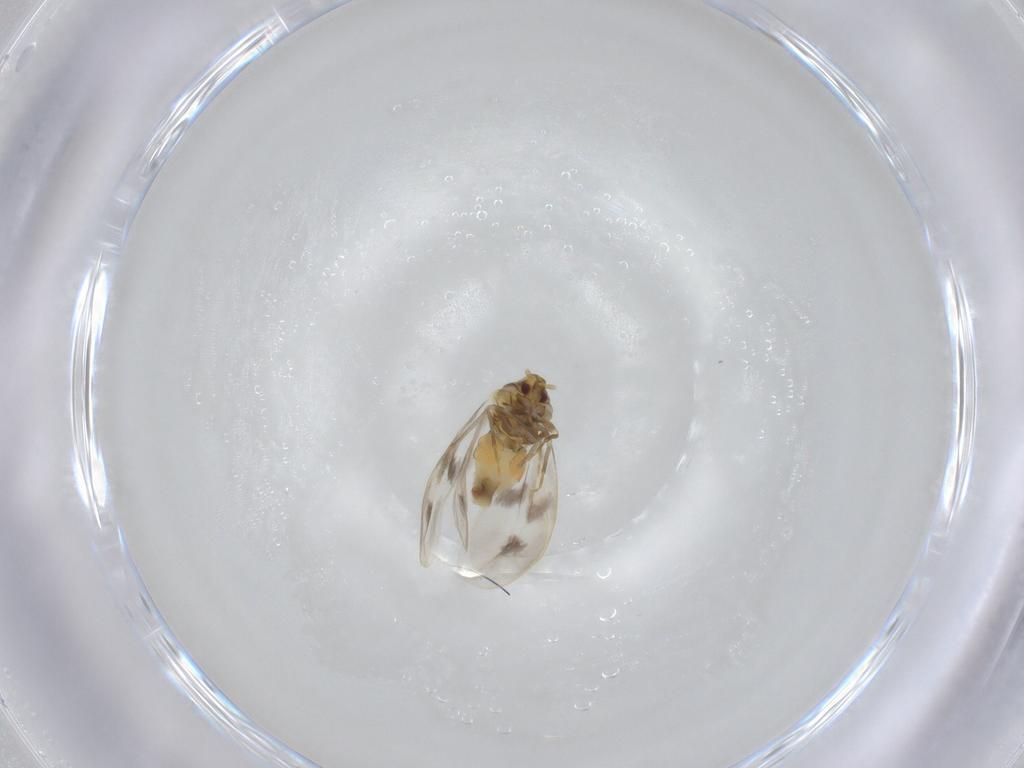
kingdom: Animalia
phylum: Arthropoda
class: Insecta
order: Hemiptera
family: Aleyrodidae
